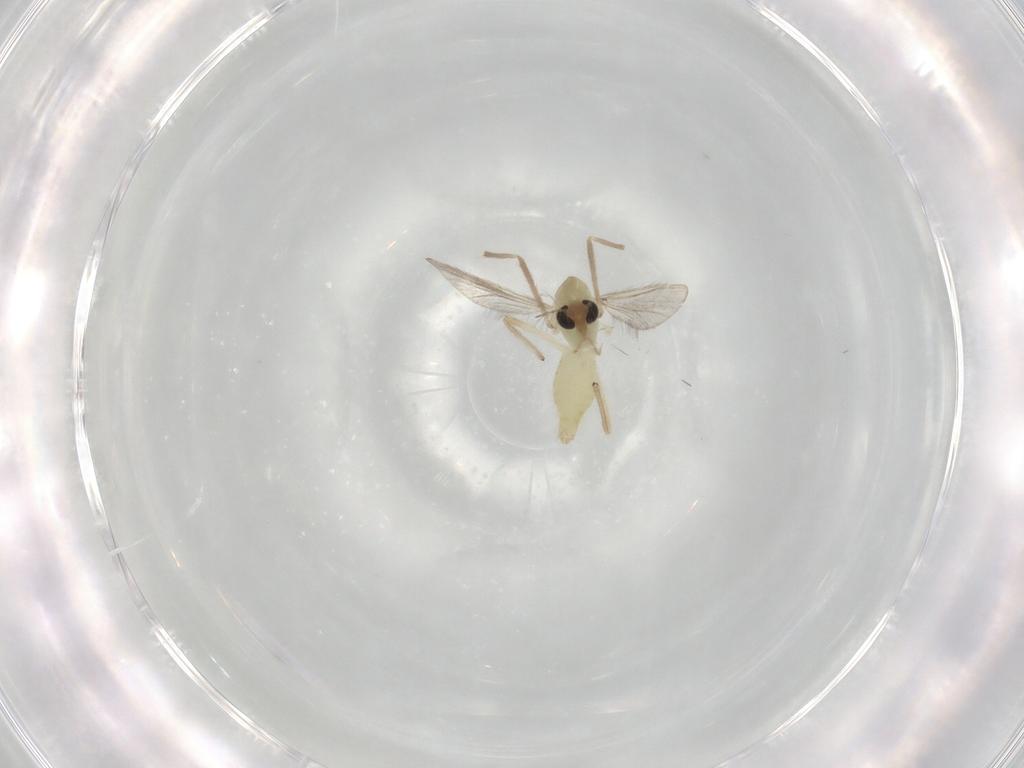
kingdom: Animalia
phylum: Arthropoda
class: Insecta
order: Diptera
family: Chironomidae
